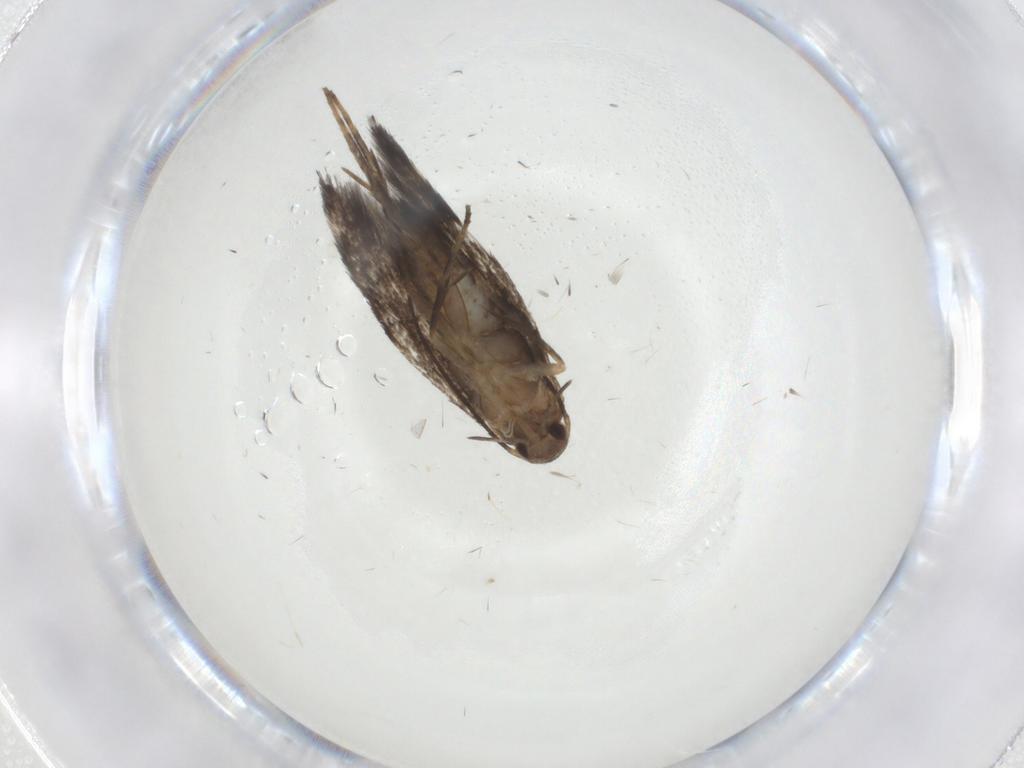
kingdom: Animalia
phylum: Arthropoda
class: Insecta
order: Lepidoptera
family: Gelechiidae
